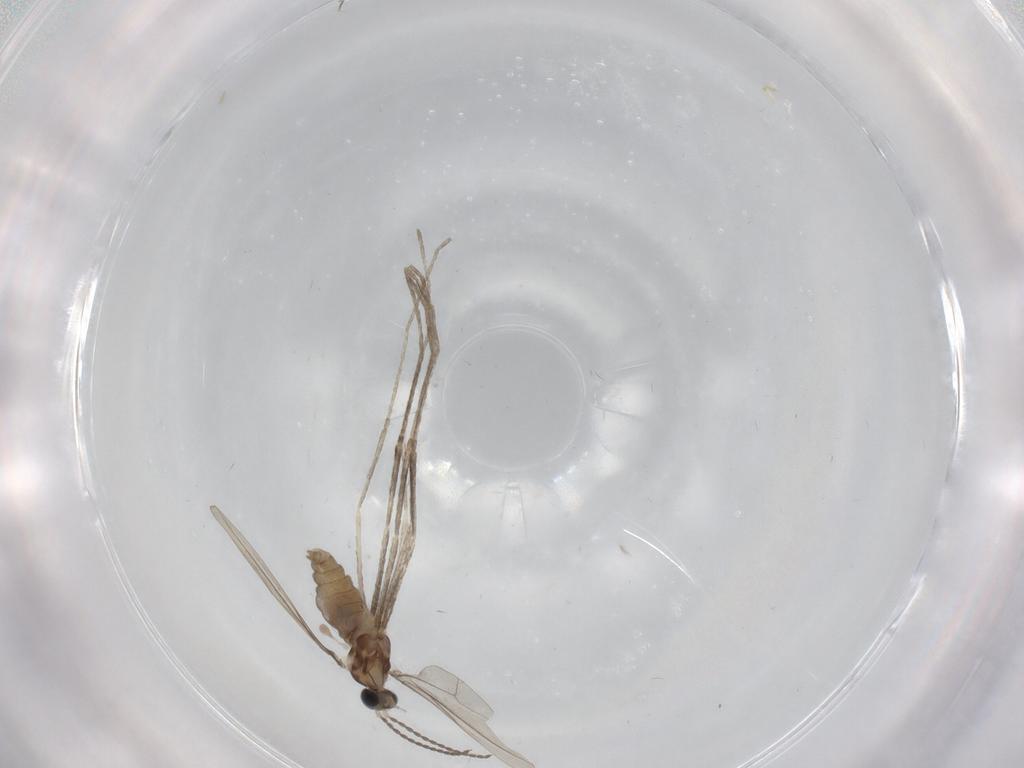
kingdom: Animalia
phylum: Arthropoda
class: Insecta
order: Diptera
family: Cecidomyiidae
